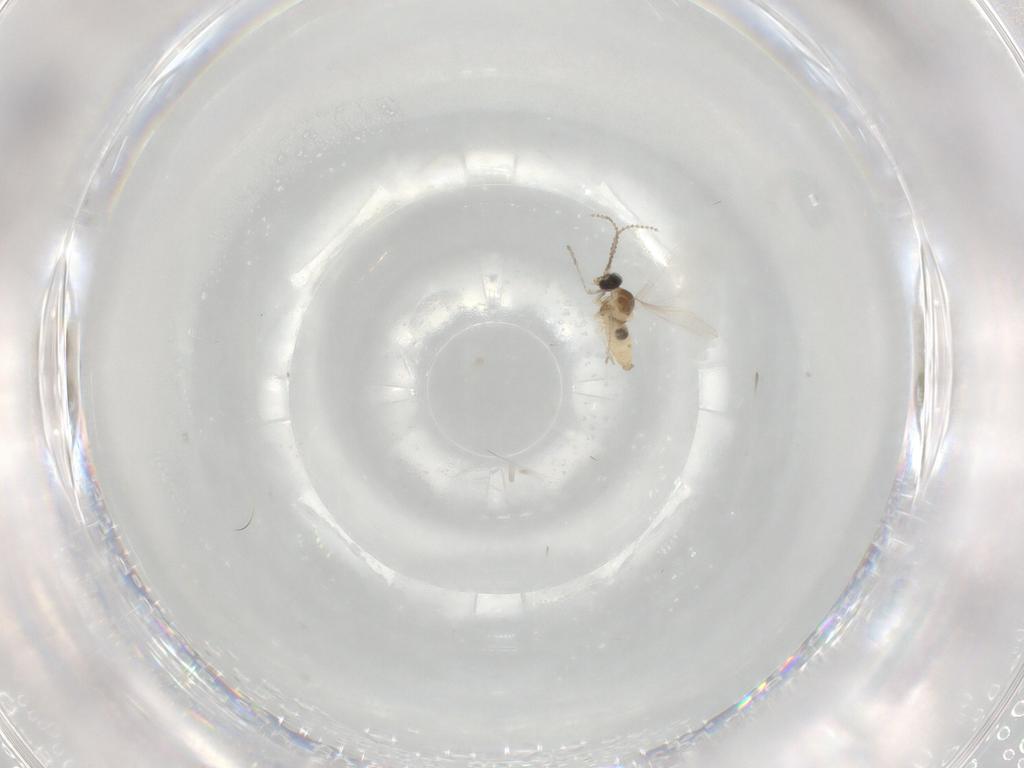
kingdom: Animalia
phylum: Arthropoda
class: Insecta
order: Diptera
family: Cecidomyiidae
